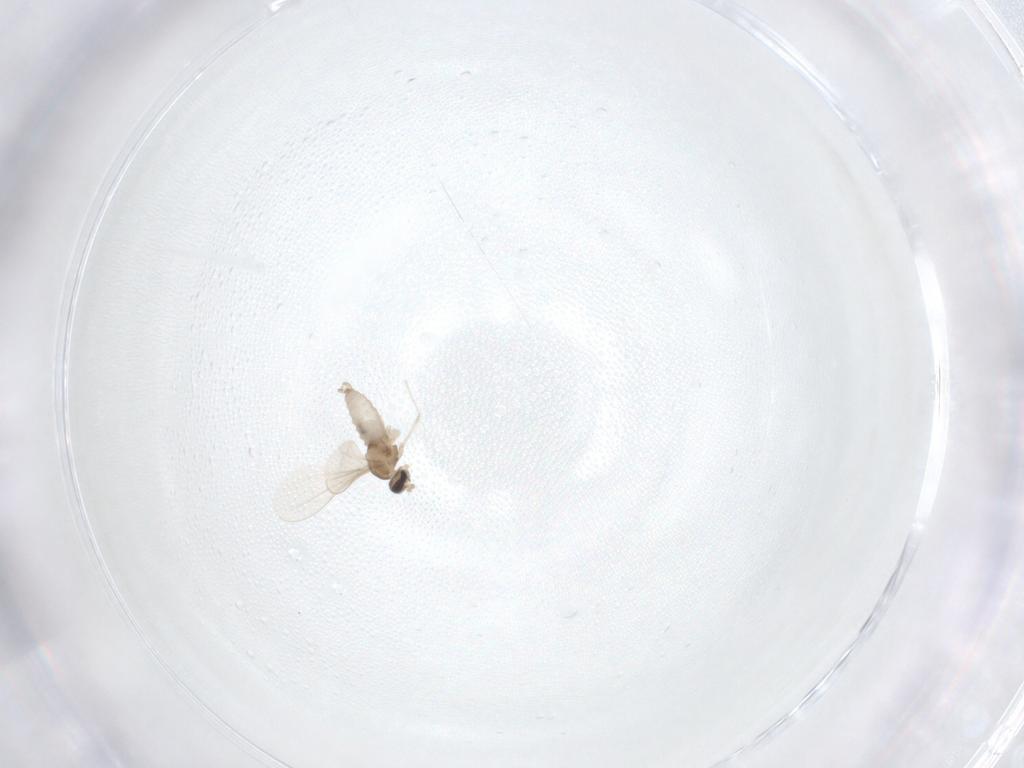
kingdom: Animalia
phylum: Arthropoda
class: Insecta
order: Diptera
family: Cecidomyiidae
